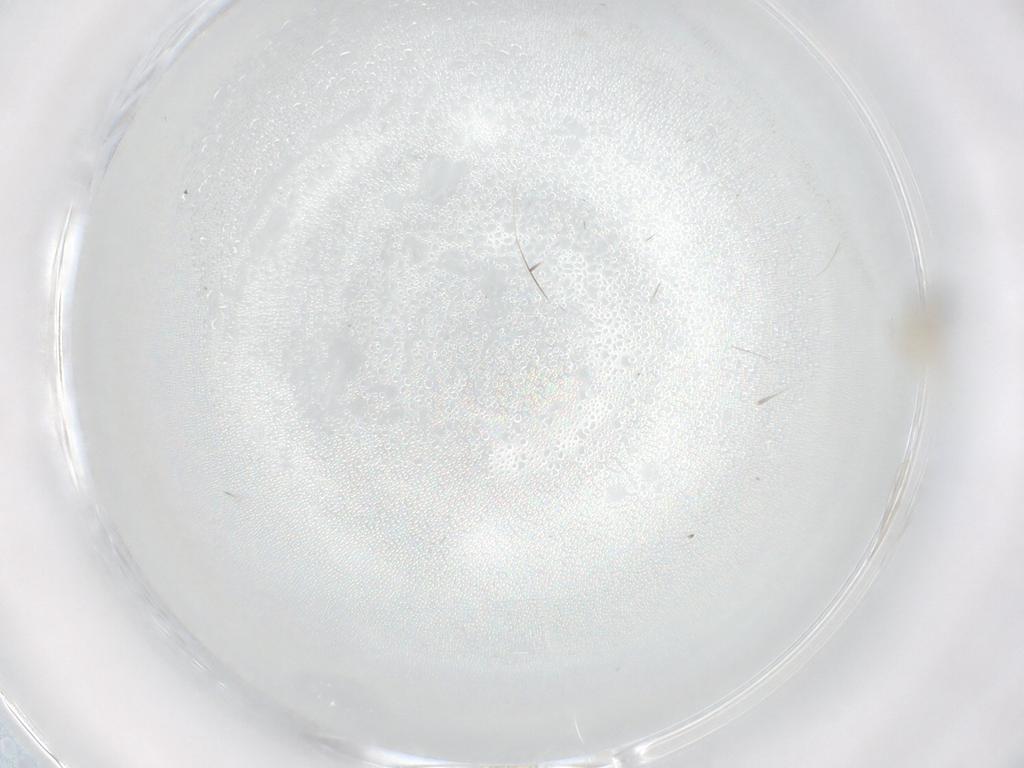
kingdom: Animalia
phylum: Arthropoda
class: Insecta
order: Diptera
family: Cecidomyiidae
